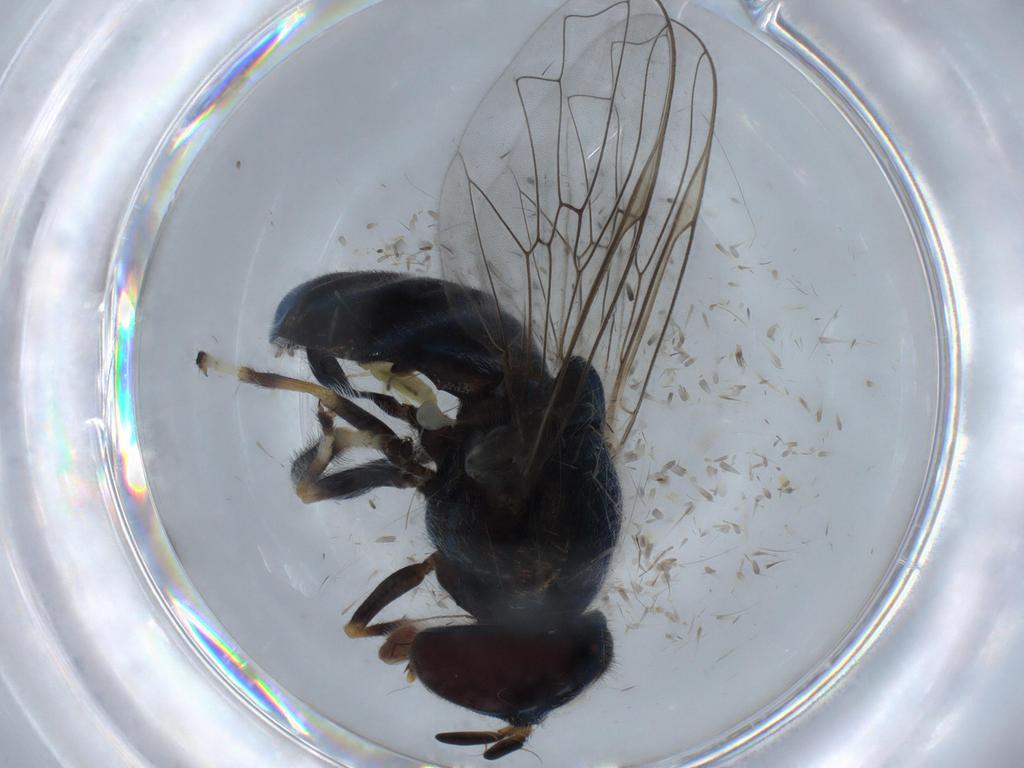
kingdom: Animalia
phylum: Arthropoda
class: Insecta
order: Diptera
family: Syrphidae
